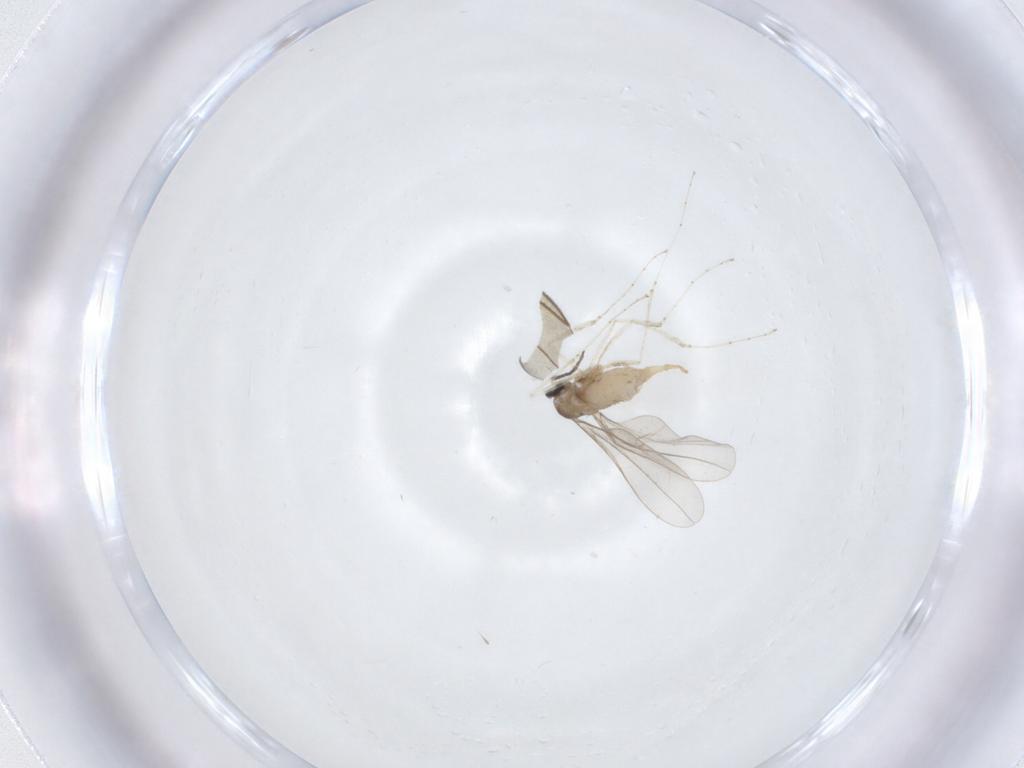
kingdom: Animalia
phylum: Arthropoda
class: Insecta
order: Diptera
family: Cecidomyiidae
